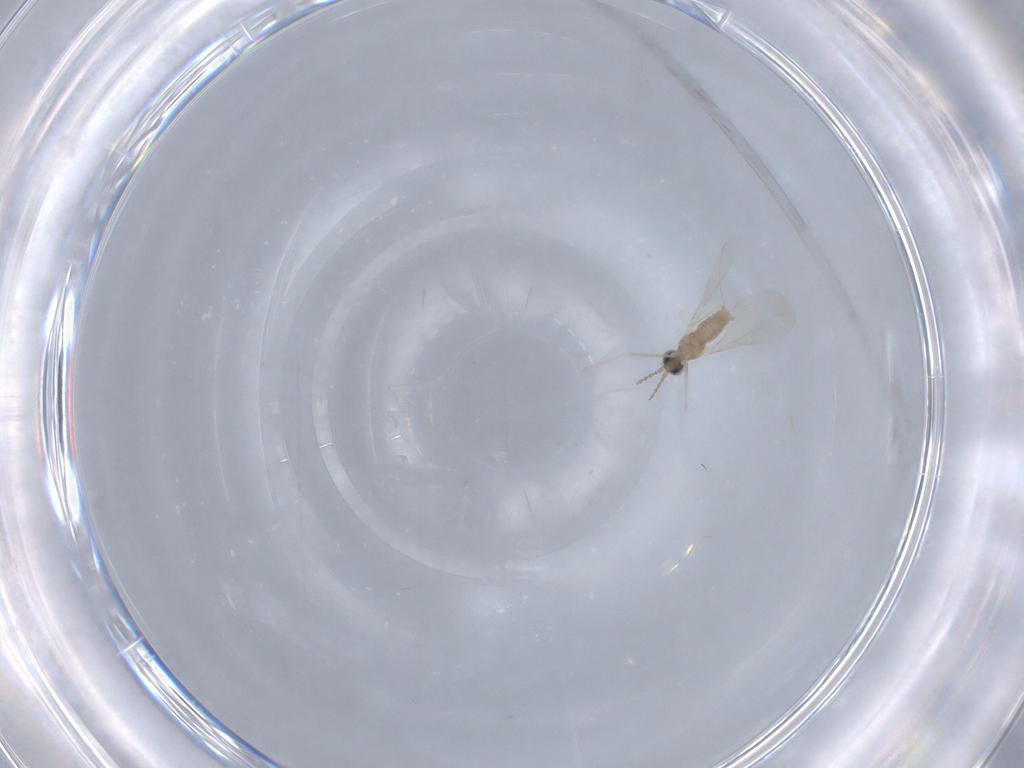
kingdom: Animalia
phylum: Arthropoda
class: Insecta
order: Diptera
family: Cecidomyiidae
